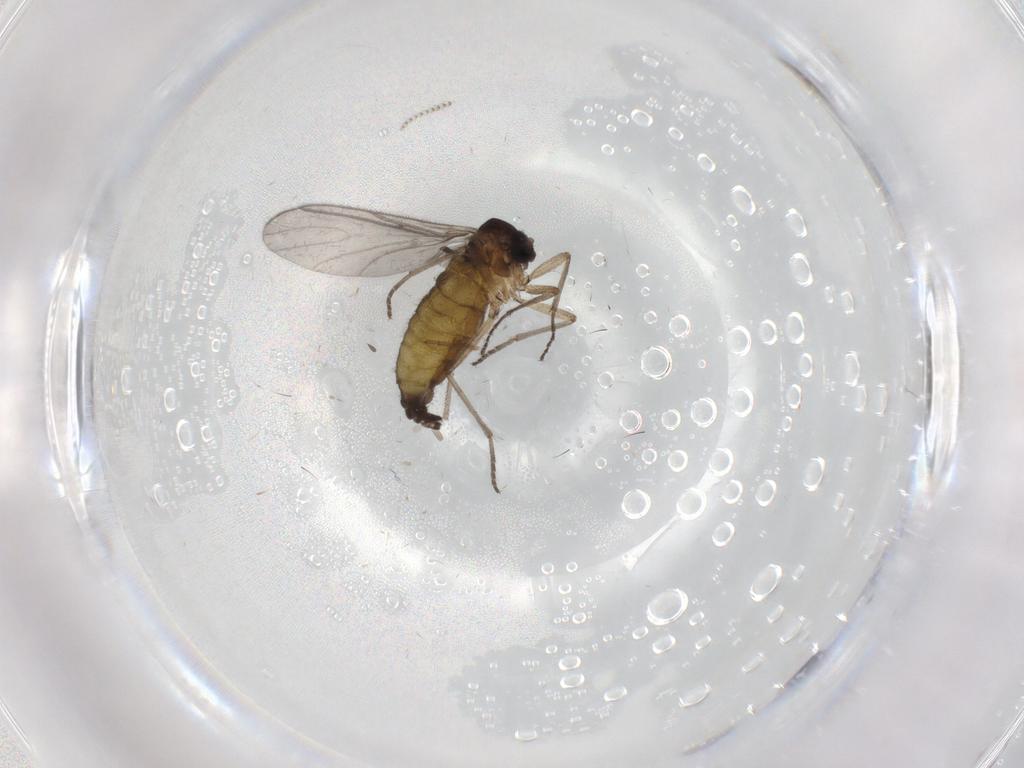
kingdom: Animalia
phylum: Arthropoda
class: Insecta
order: Diptera
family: Sciaridae
